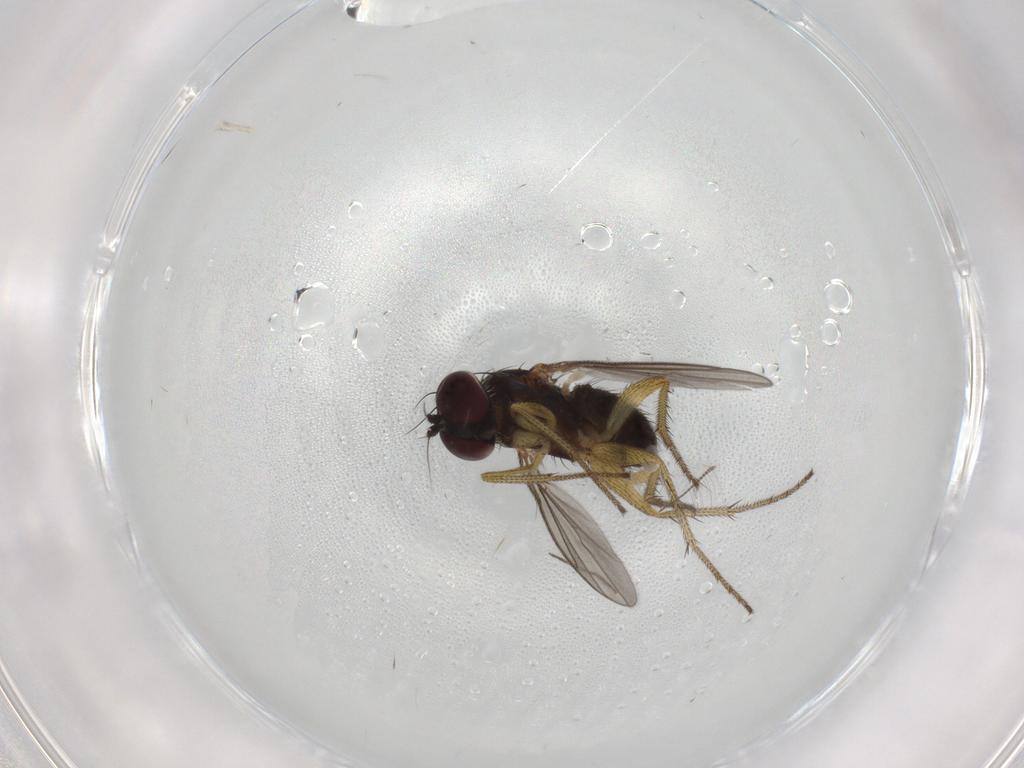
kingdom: Animalia
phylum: Arthropoda
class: Insecta
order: Diptera
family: Chironomidae
